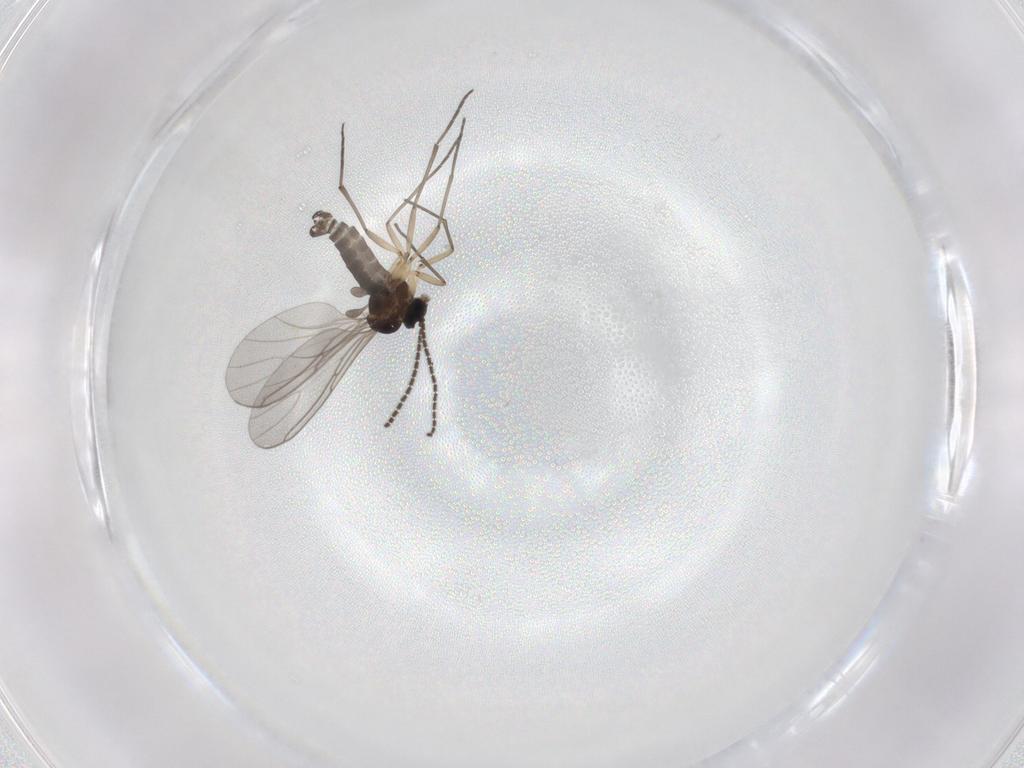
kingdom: Animalia
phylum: Arthropoda
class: Insecta
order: Diptera
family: Sciaridae
